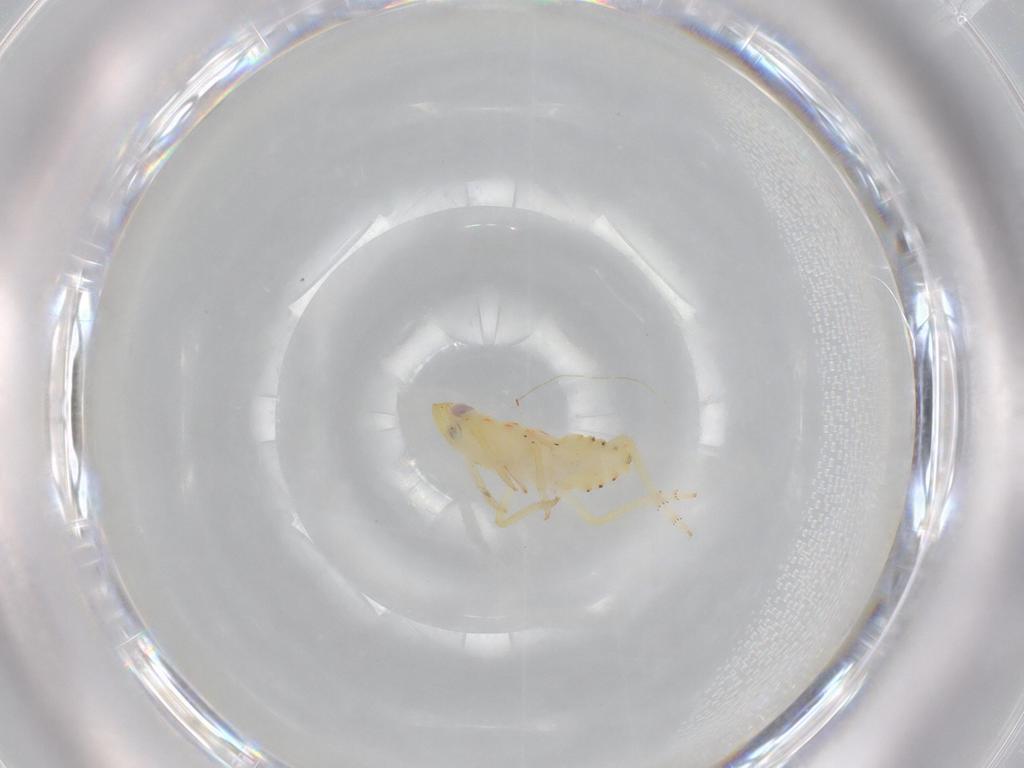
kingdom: Animalia
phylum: Arthropoda
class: Insecta
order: Hemiptera
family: Tropiduchidae
